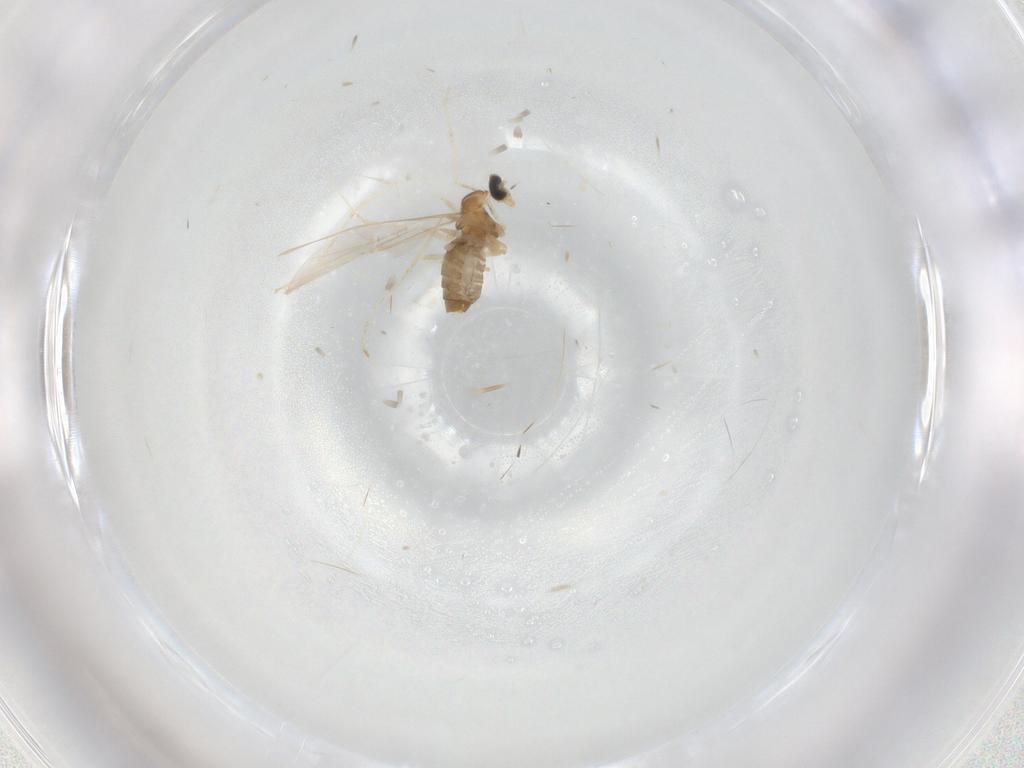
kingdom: Animalia
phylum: Arthropoda
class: Insecta
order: Diptera
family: Cecidomyiidae
